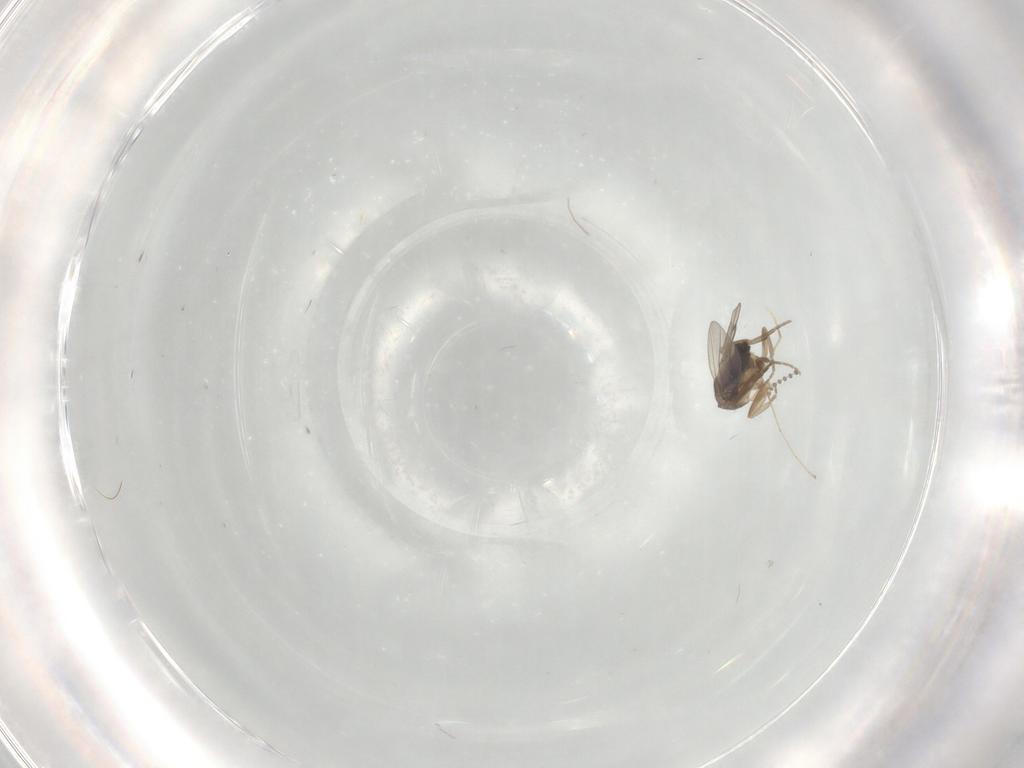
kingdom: Animalia
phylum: Arthropoda
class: Insecta
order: Diptera
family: Phoridae
